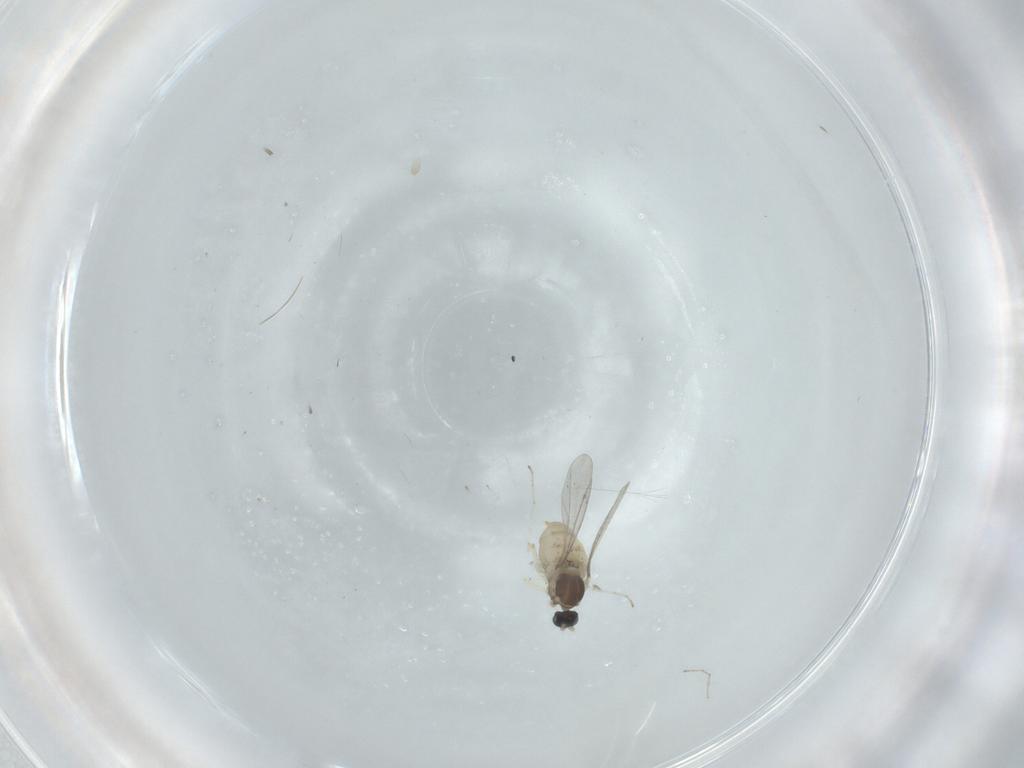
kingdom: Animalia
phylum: Arthropoda
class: Insecta
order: Diptera
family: Cecidomyiidae
